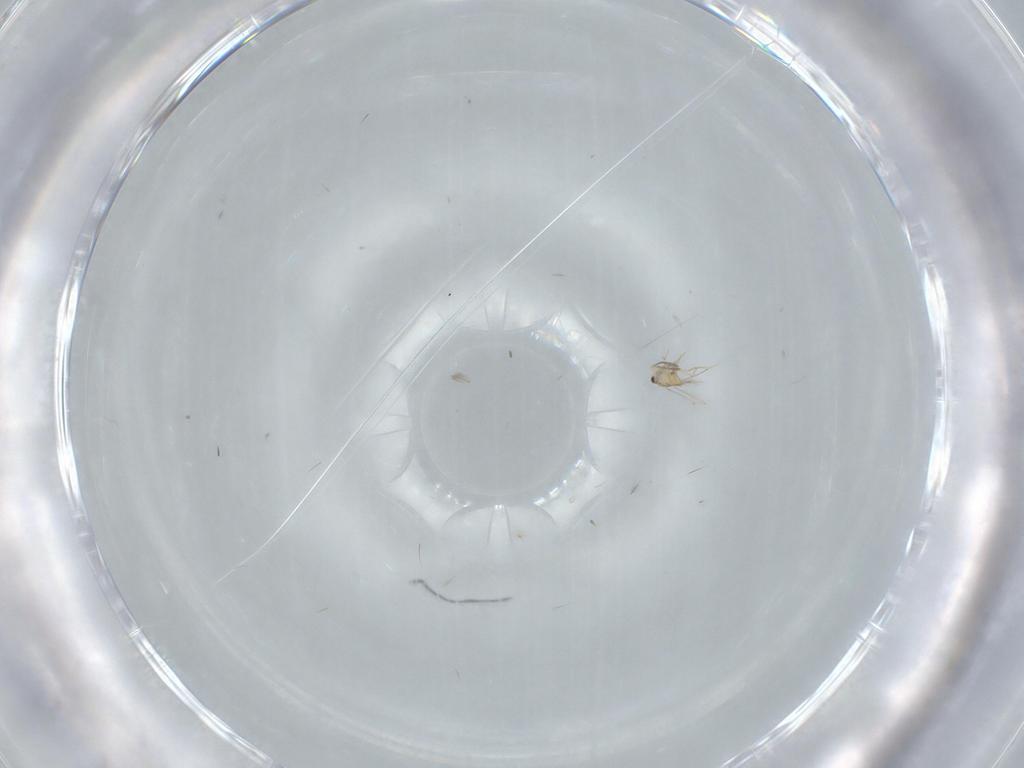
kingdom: Animalia
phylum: Arthropoda
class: Insecta
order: Diptera
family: Tabanidae
